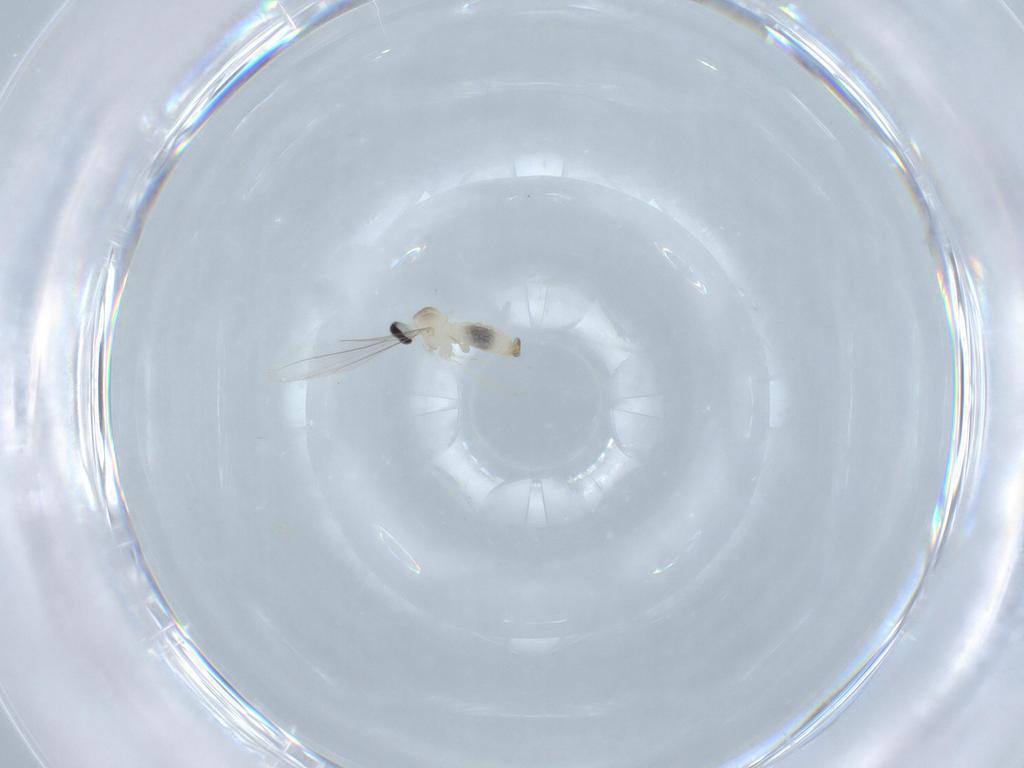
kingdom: Animalia
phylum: Arthropoda
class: Insecta
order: Diptera
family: Cecidomyiidae
